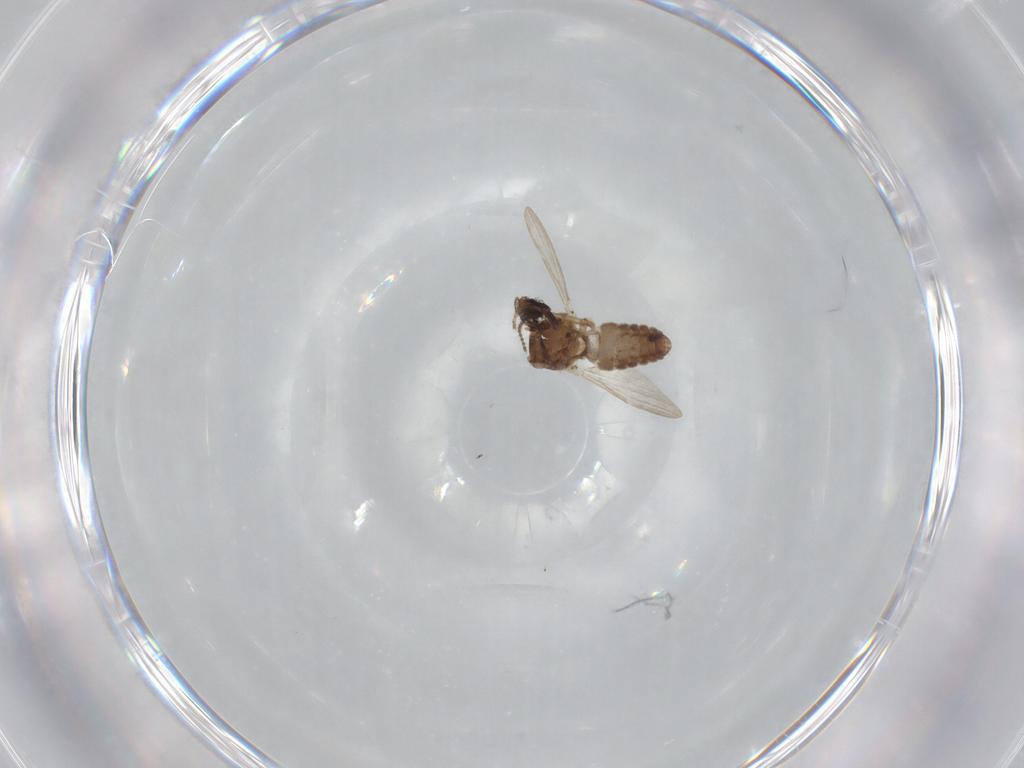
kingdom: Animalia
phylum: Arthropoda
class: Insecta
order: Diptera
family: Ceratopogonidae
